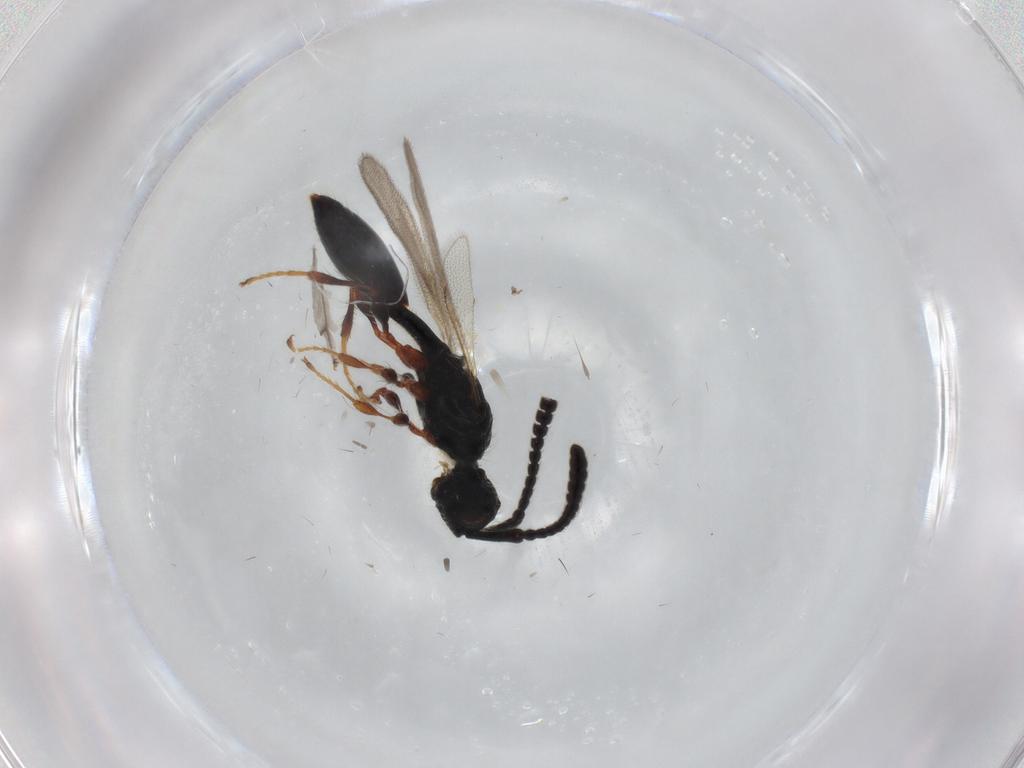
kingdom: Animalia
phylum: Arthropoda
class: Insecta
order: Hymenoptera
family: Diapriidae
